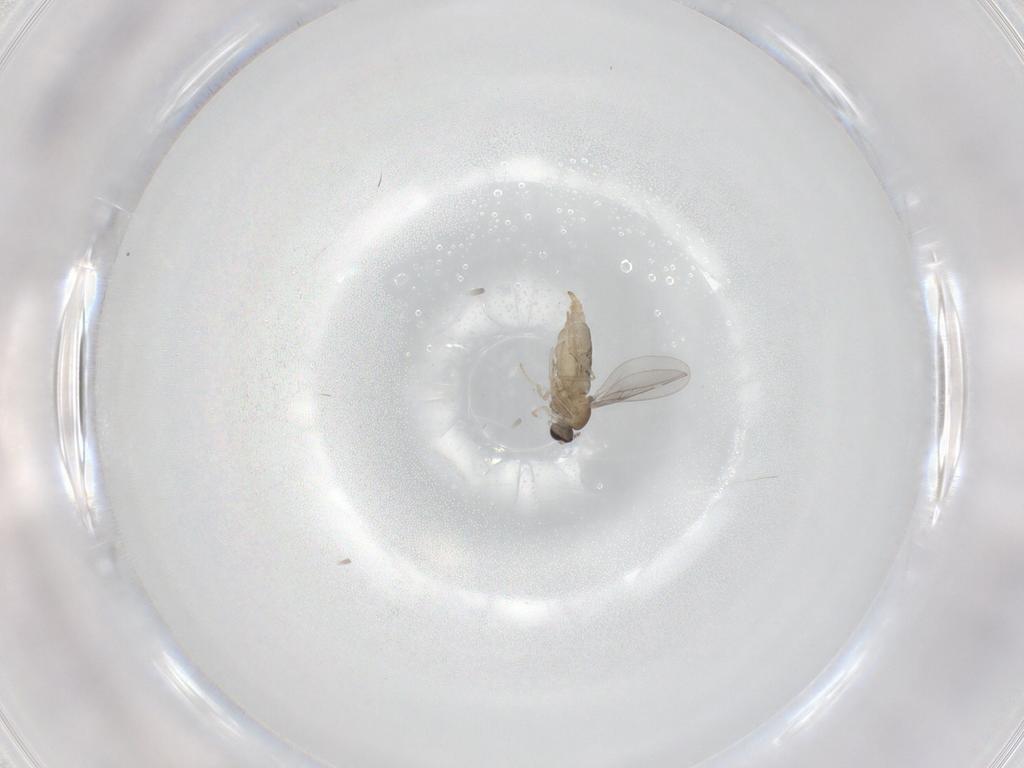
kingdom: Animalia
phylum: Arthropoda
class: Insecta
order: Diptera
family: Cecidomyiidae
